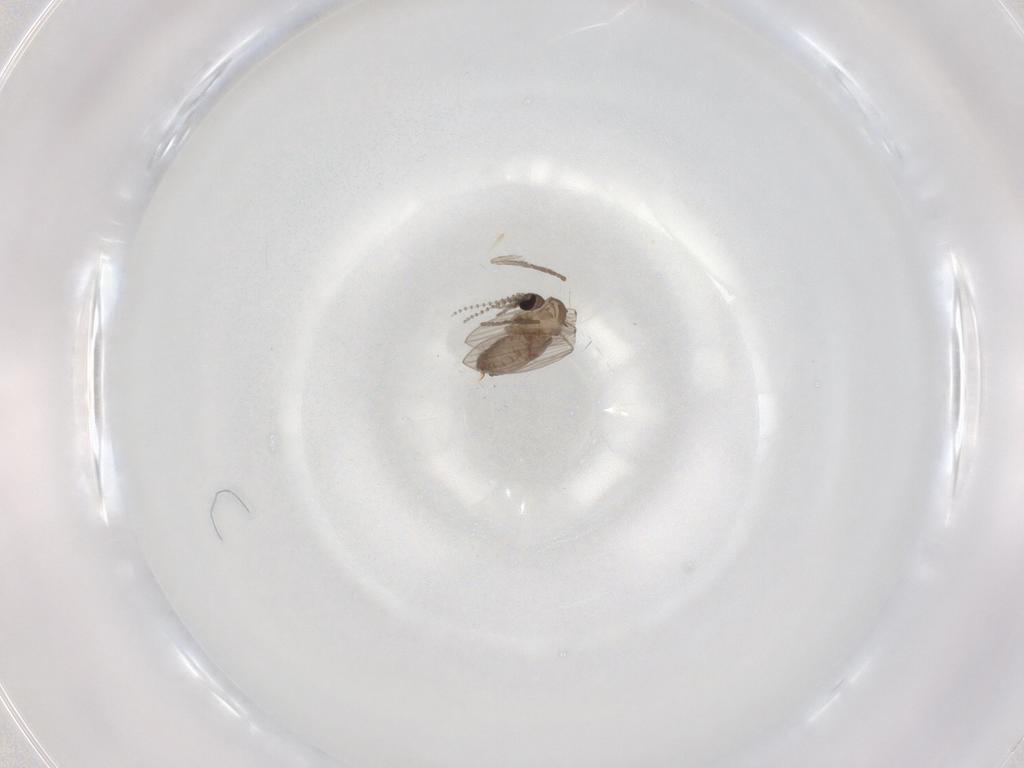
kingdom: Animalia
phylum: Arthropoda
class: Insecta
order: Diptera
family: Psychodidae
